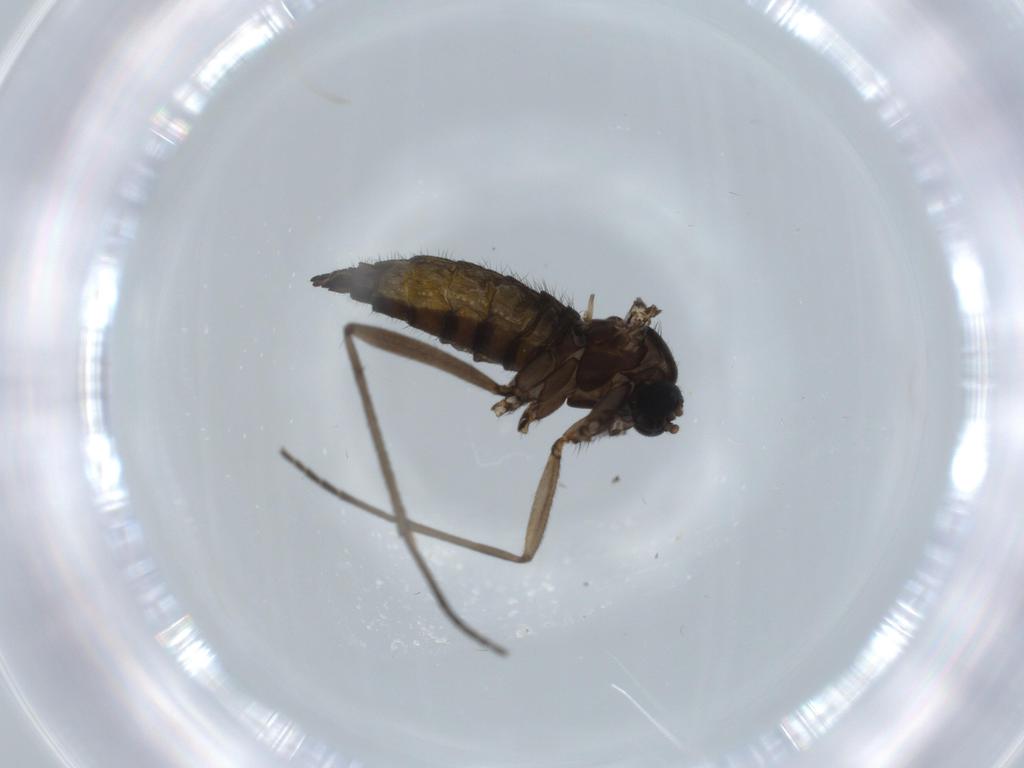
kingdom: Animalia
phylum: Arthropoda
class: Insecta
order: Diptera
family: Sciaridae
